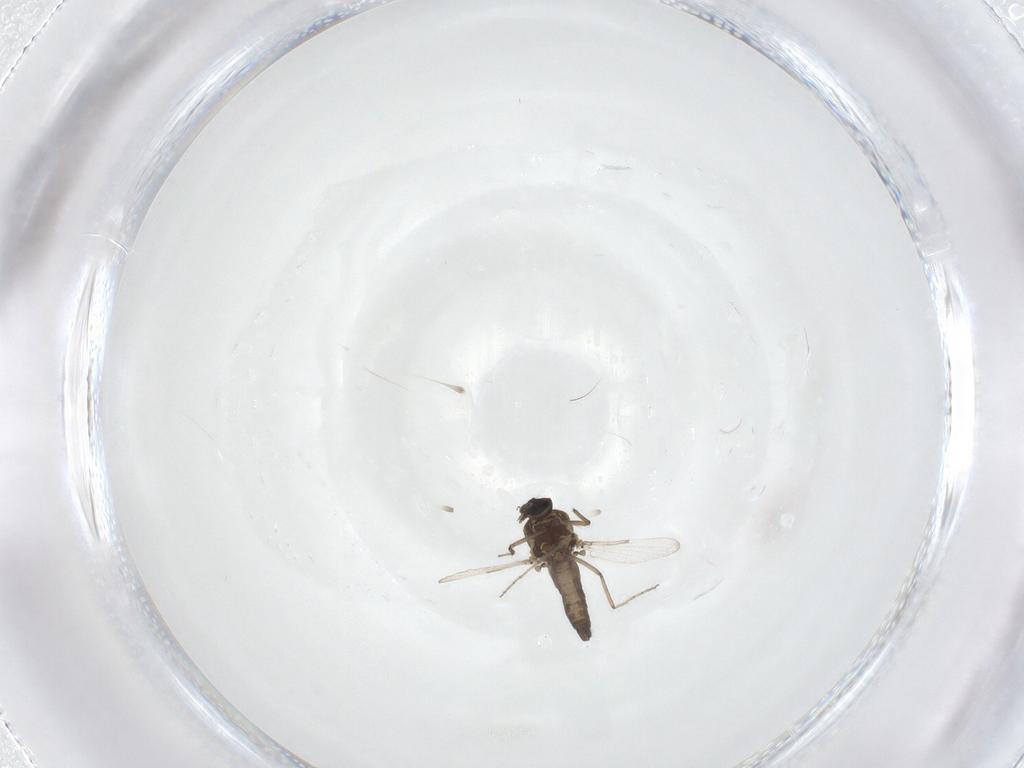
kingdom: Animalia
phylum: Arthropoda
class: Insecta
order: Diptera
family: Ceratopogonidae
